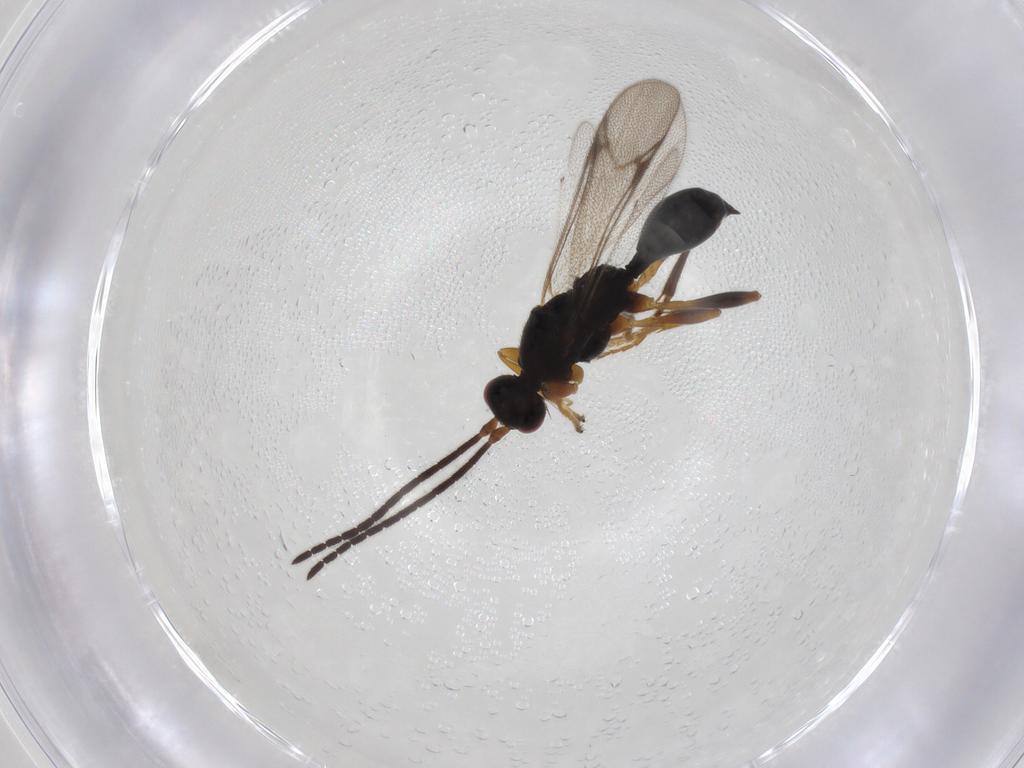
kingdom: Animalia
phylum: Arthropoda
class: Insecta
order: Hymenoptera
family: Proctotrupidae
